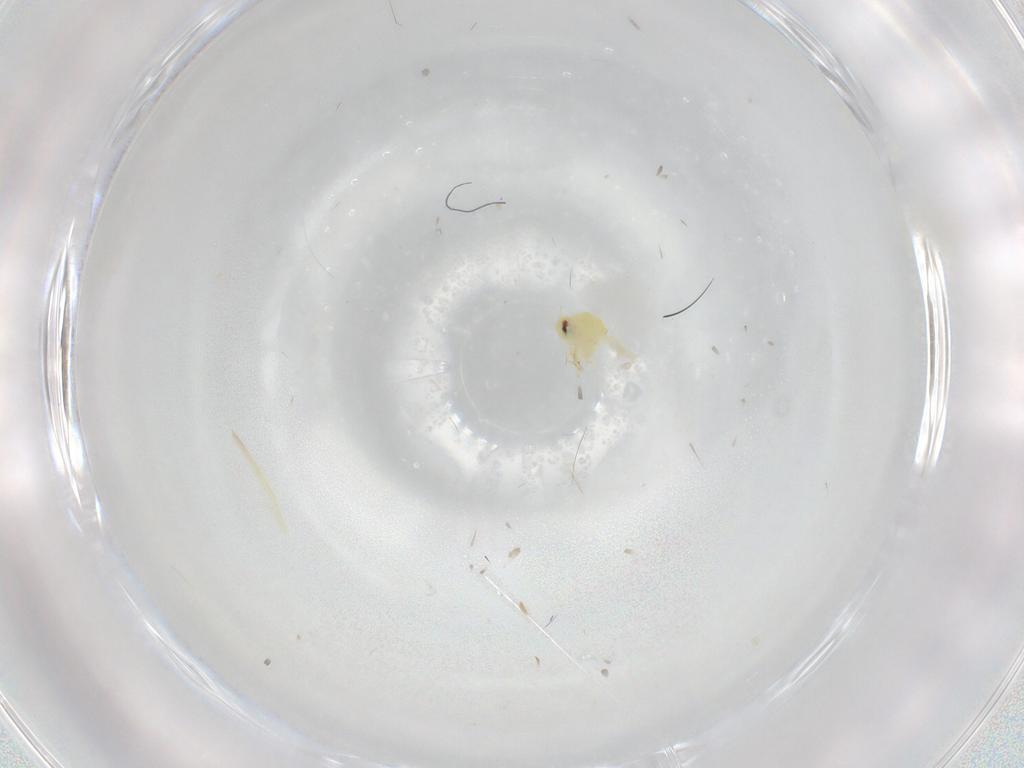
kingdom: Animalia
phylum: Arthropoda
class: Insecta
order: Hemiptera
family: Aleyrodidae
